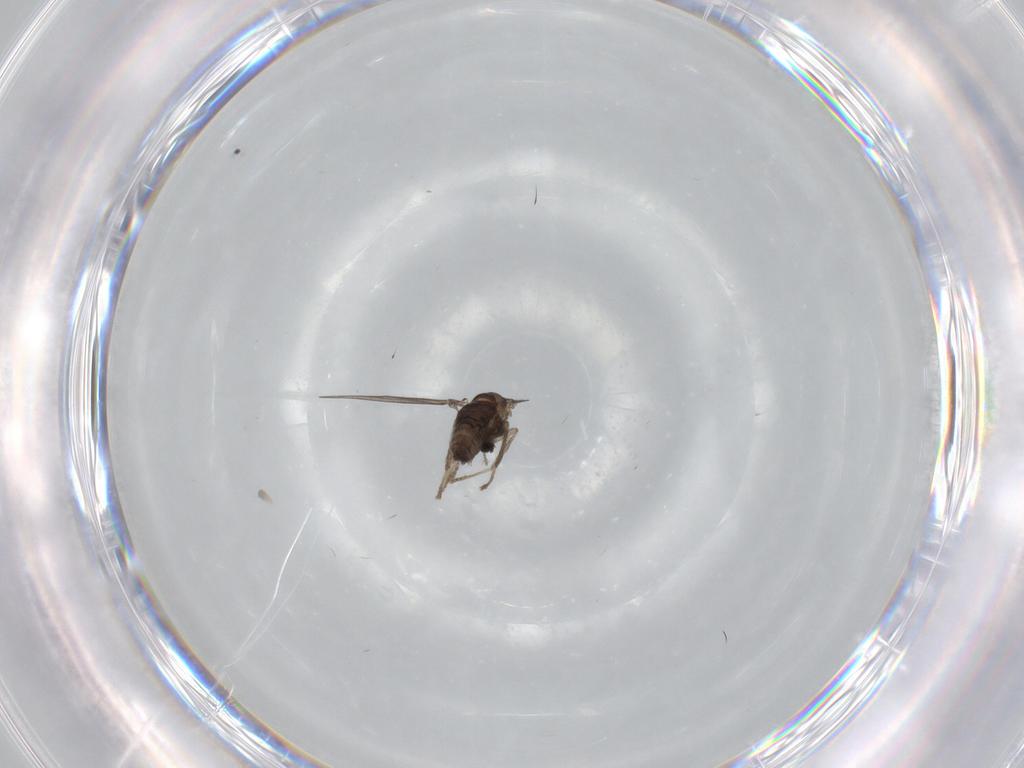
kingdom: Animalia
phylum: Arthropoda
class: Insecta
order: Diptera
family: Psychodidae
